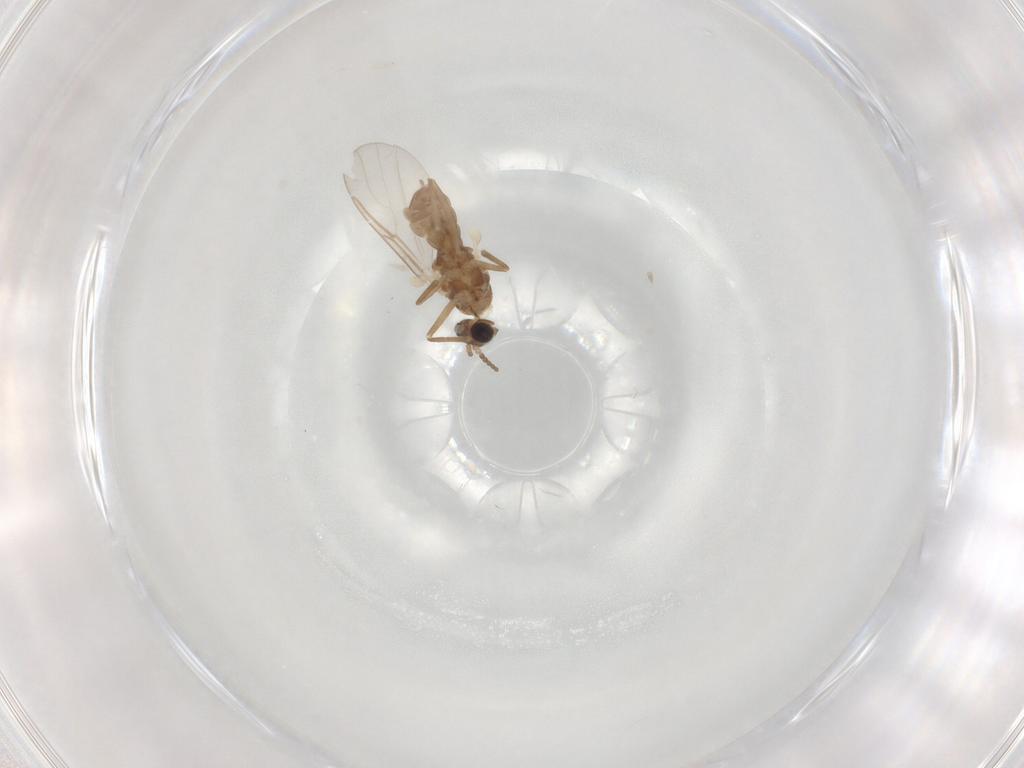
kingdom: Animalia
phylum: Arthropoda
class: Insecta
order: Diptera
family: Cecidomyiidae
